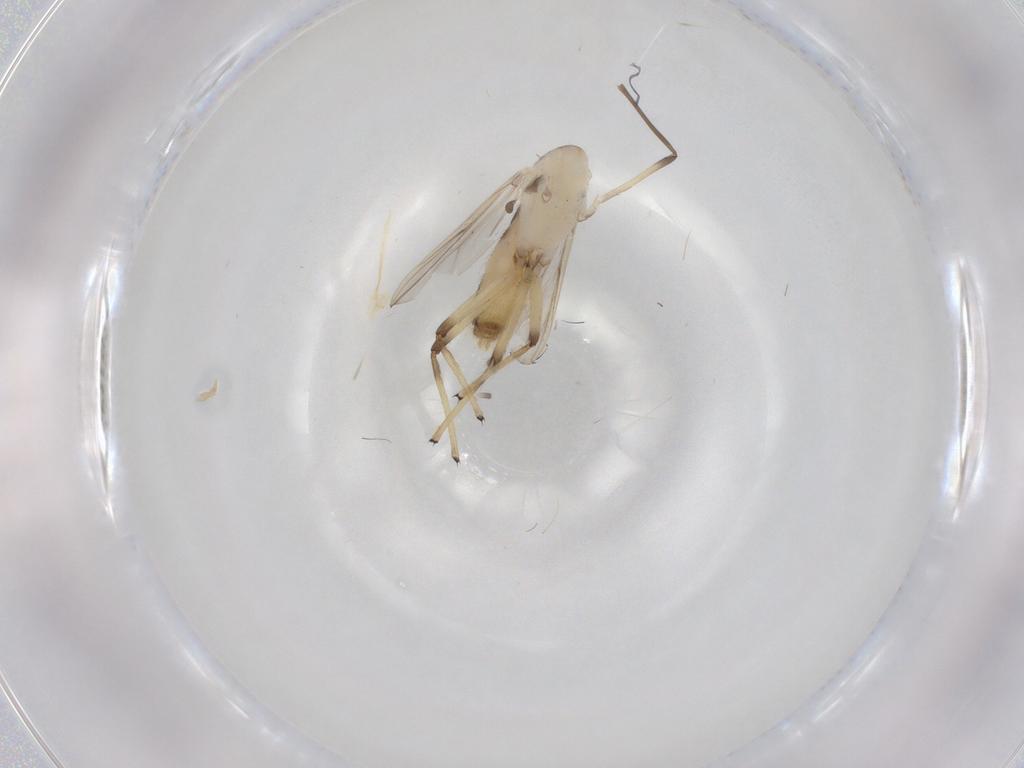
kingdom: Animalia
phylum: Arthropoda
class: Insecta
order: Diptera
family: Chironomidae
